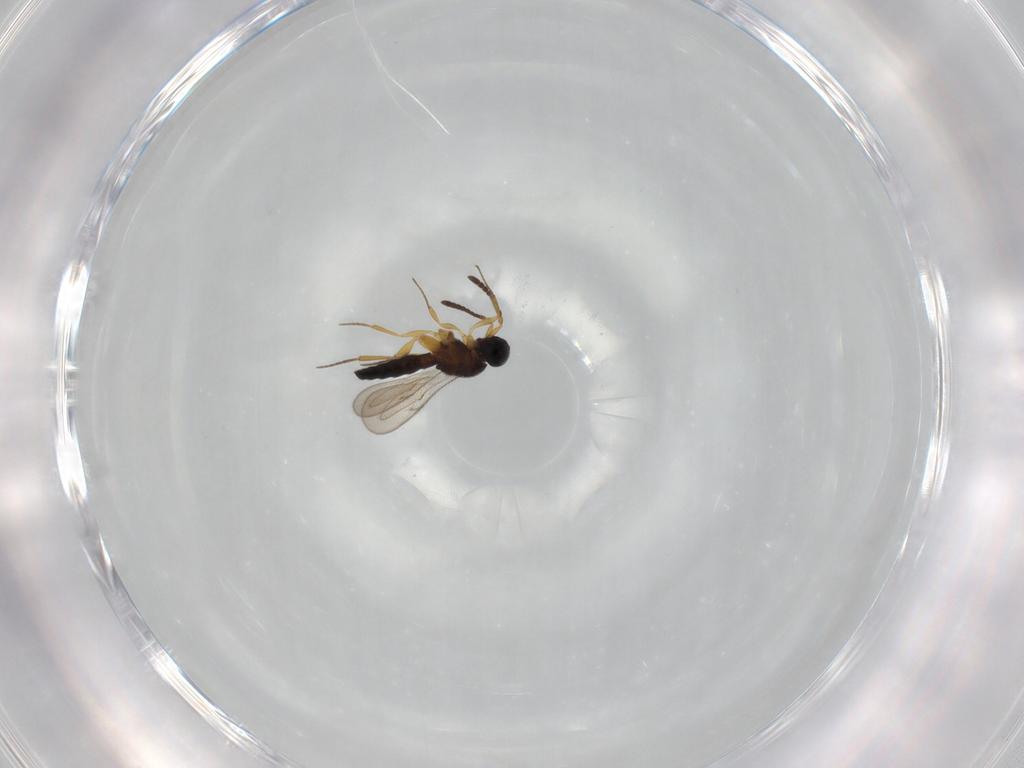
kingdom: Animalia
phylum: Arthropoda
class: Insecta
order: Hymenoptera
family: Scelionidae
